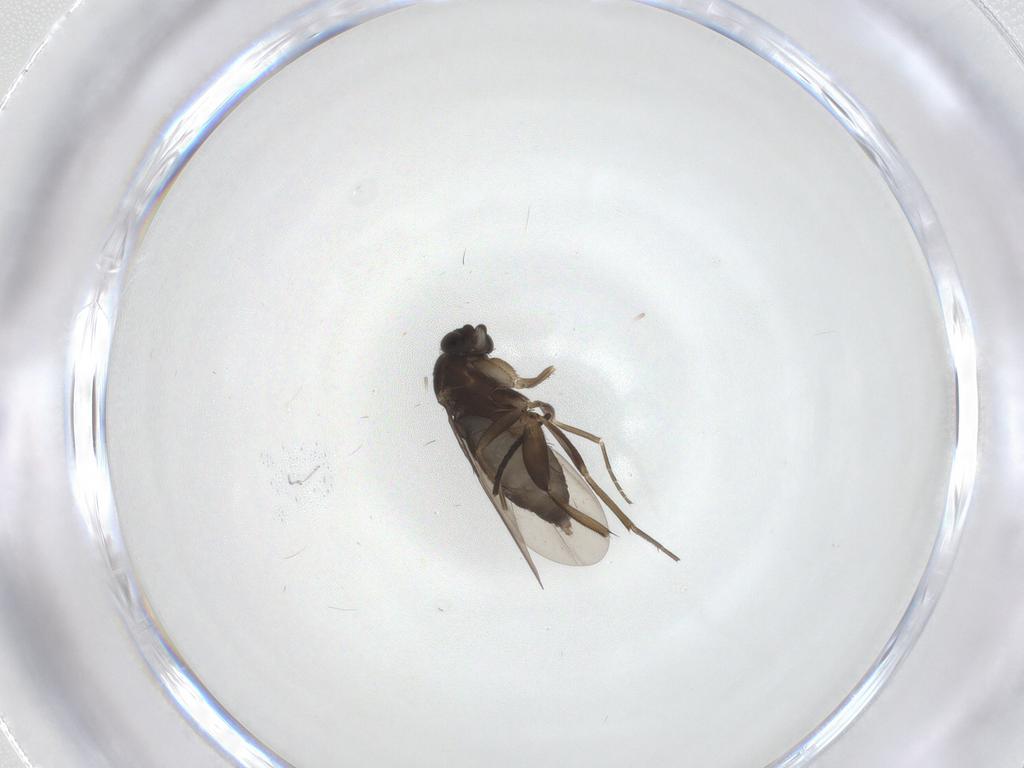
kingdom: Animalia
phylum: Arthropoda
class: Insecta
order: Diptera
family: Phoridae
